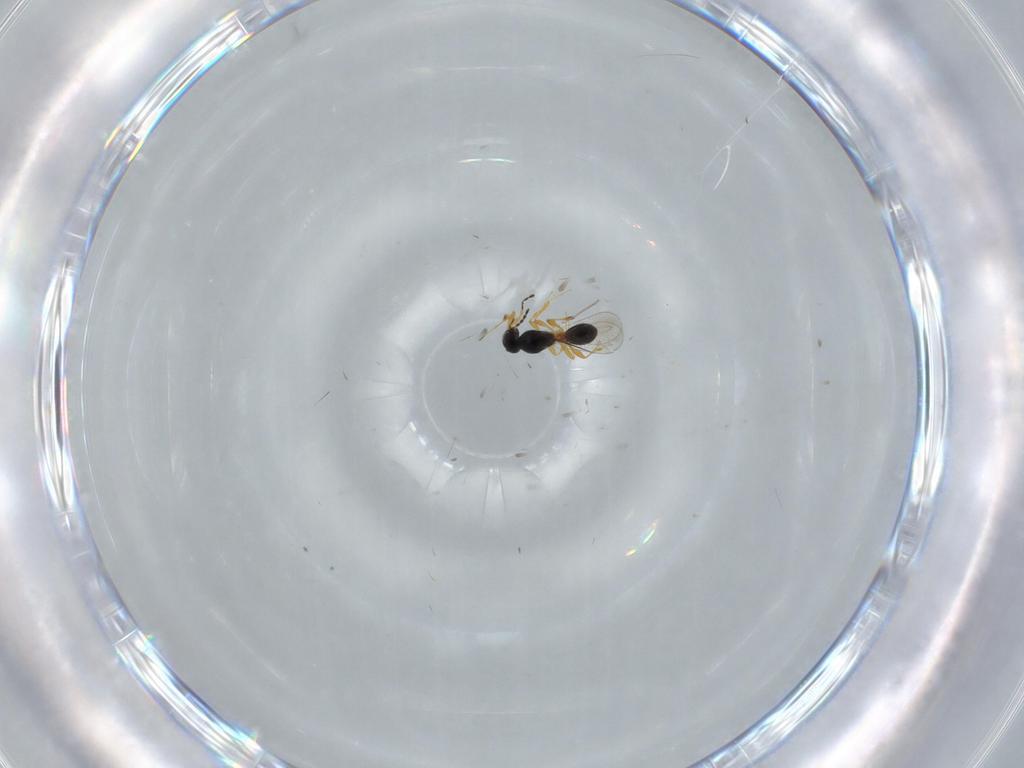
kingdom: Animalia
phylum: Arthropoda
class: Insecta
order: Hymenoptera
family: Platygastridae
